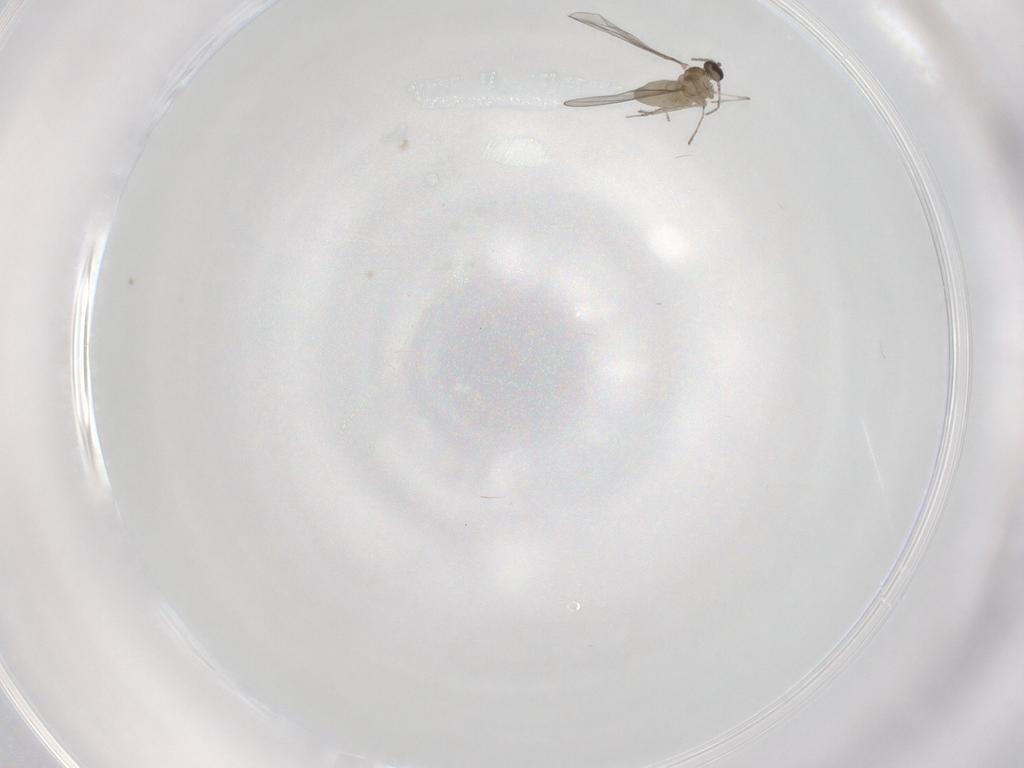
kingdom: Animalia
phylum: Arthropoda
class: Insecta
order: Diptera
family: Cecidomyiidae
